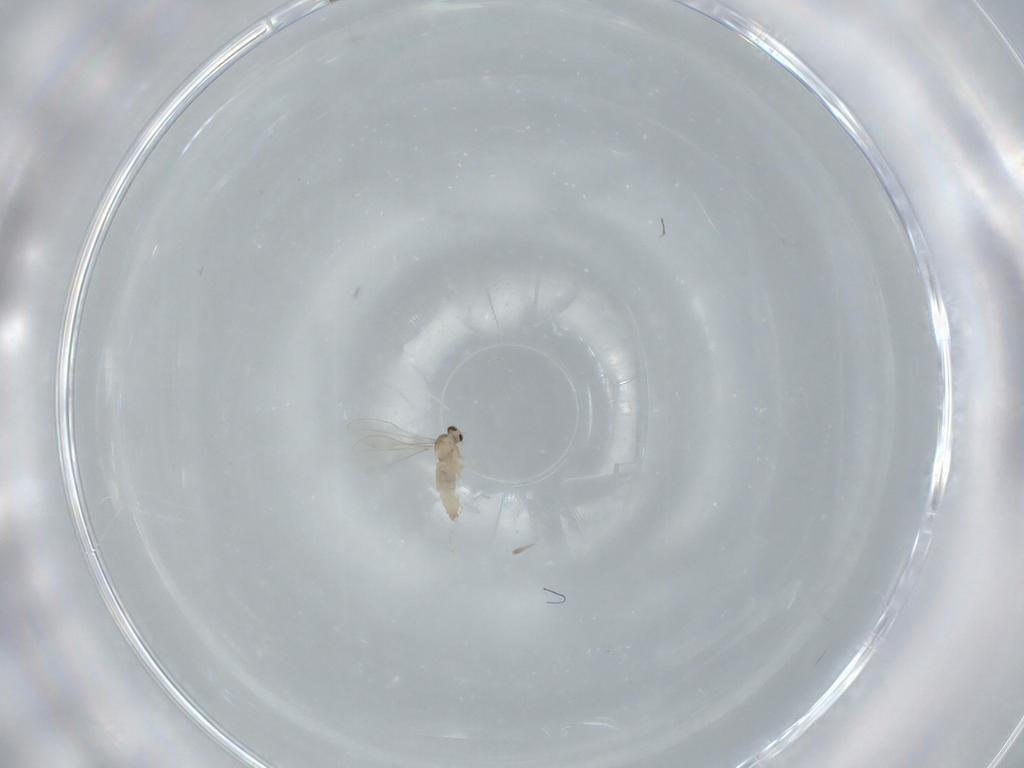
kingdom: Animalia
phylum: Arthropoda
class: Insecta
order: Diptera
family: Cecidomyiidae
